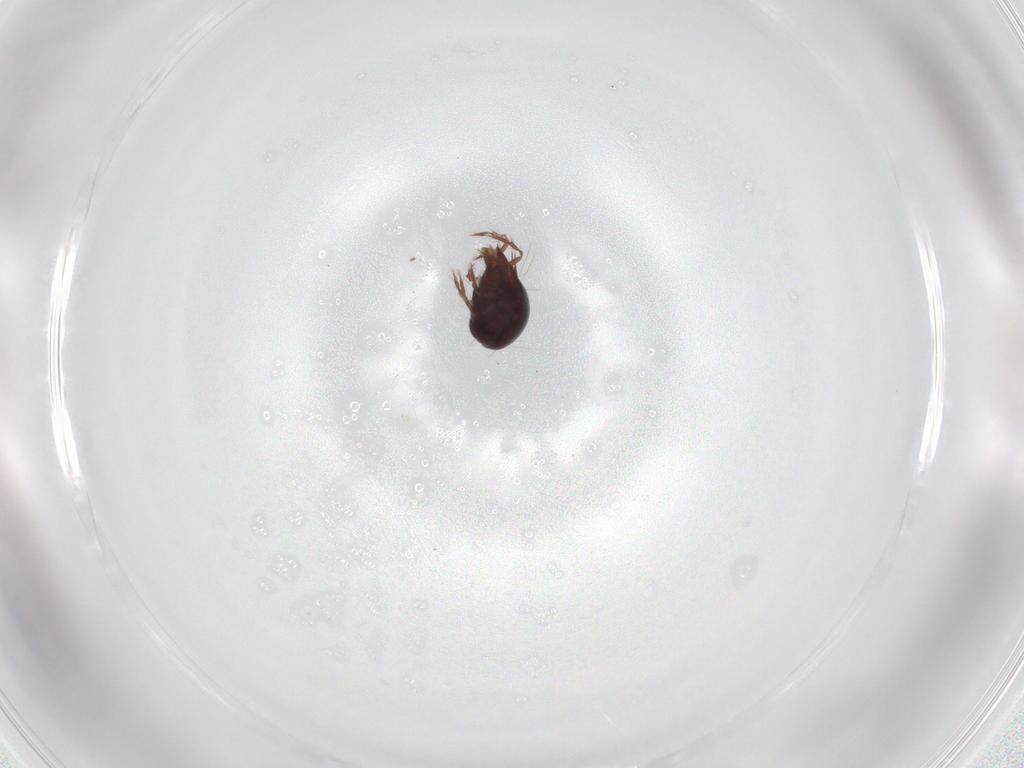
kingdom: Animalia
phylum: Arthropoda
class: Arachnida
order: Sarcoptiformes
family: Ceratoppiidae
